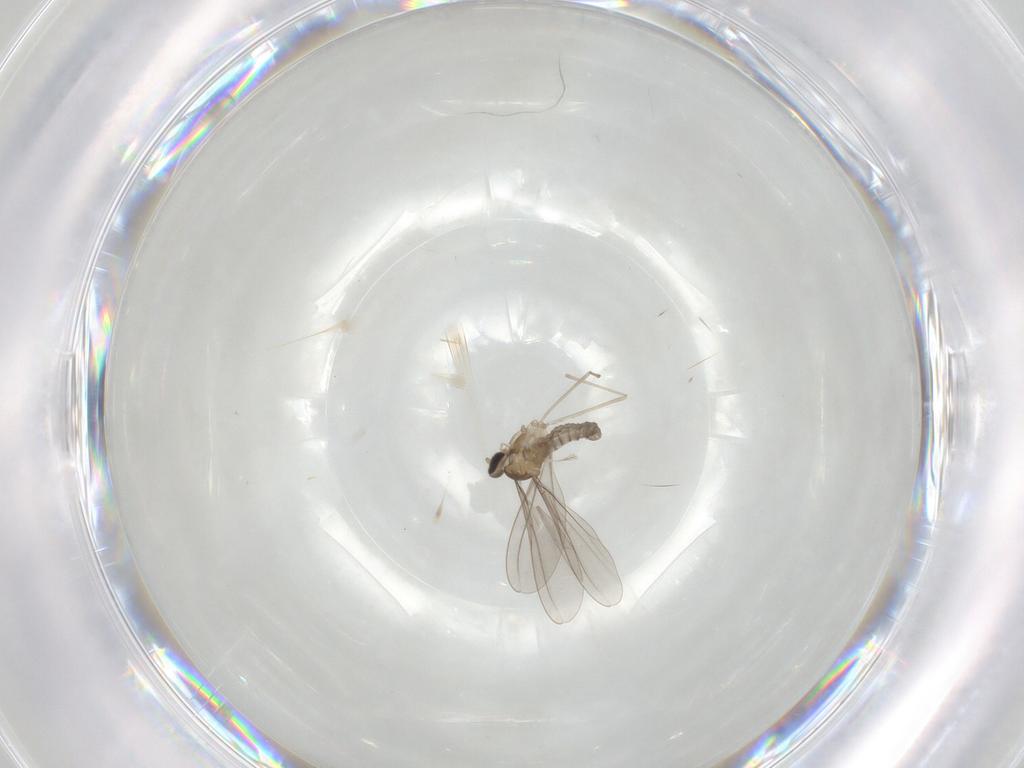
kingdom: Animalia
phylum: Arthropoda
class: Insecta
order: Diptera
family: Cecidomyiidae
